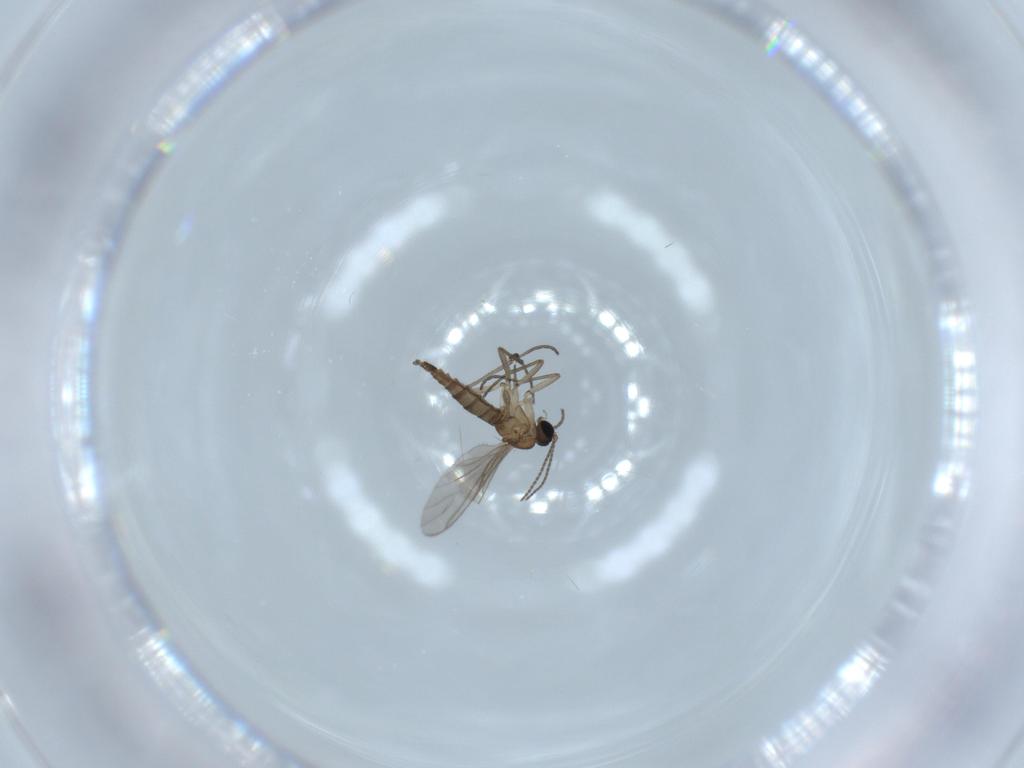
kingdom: Animalia
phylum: Arthropoda
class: Insecta
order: Diptera
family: Sciaridae
